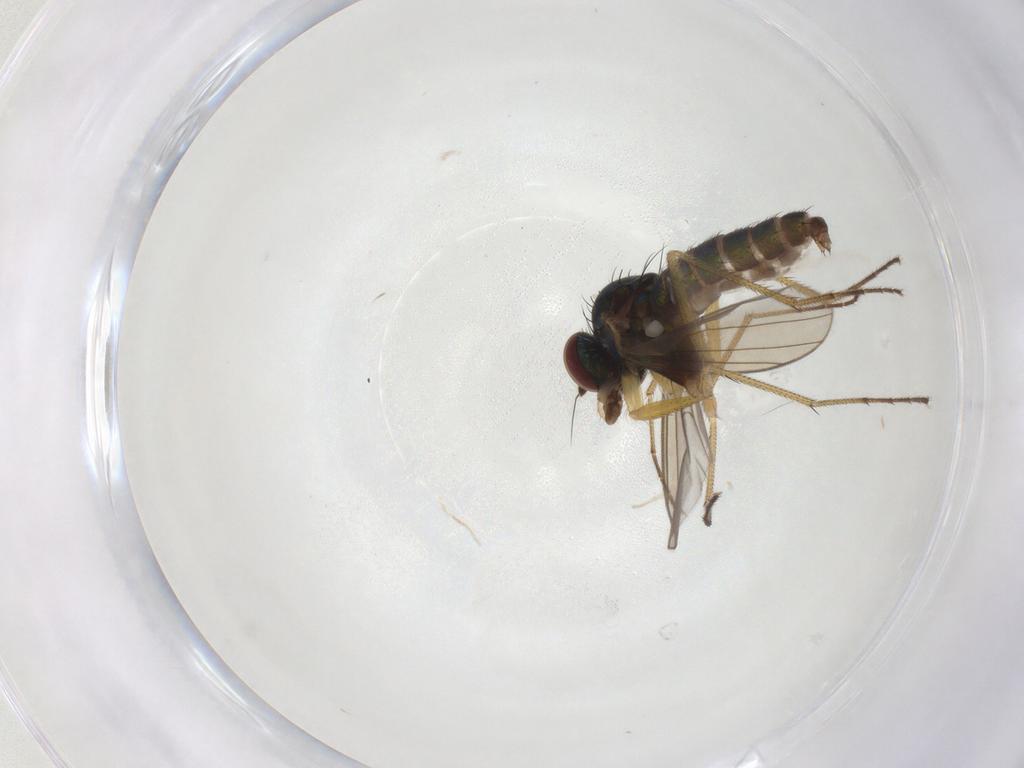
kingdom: Animalia
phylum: Arthropoda
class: Insecta
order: Diptera
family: Dolichopodidae
